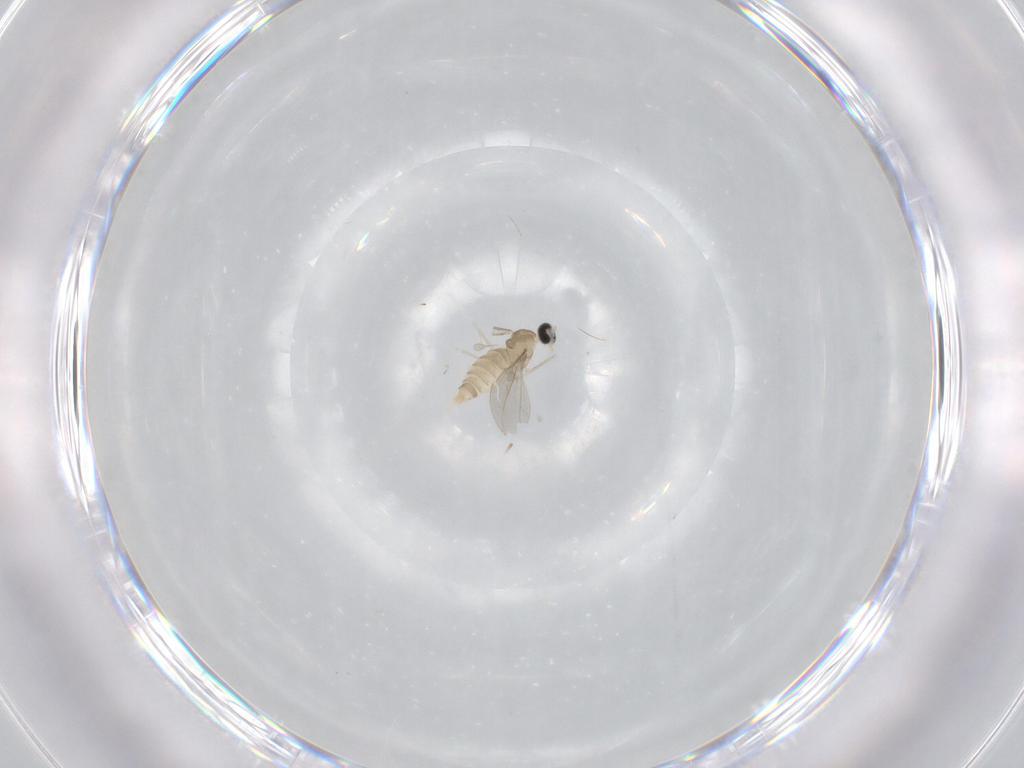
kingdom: Animalia
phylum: Arthropoda
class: Insecta
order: Diptera
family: Cecidomyiidae
